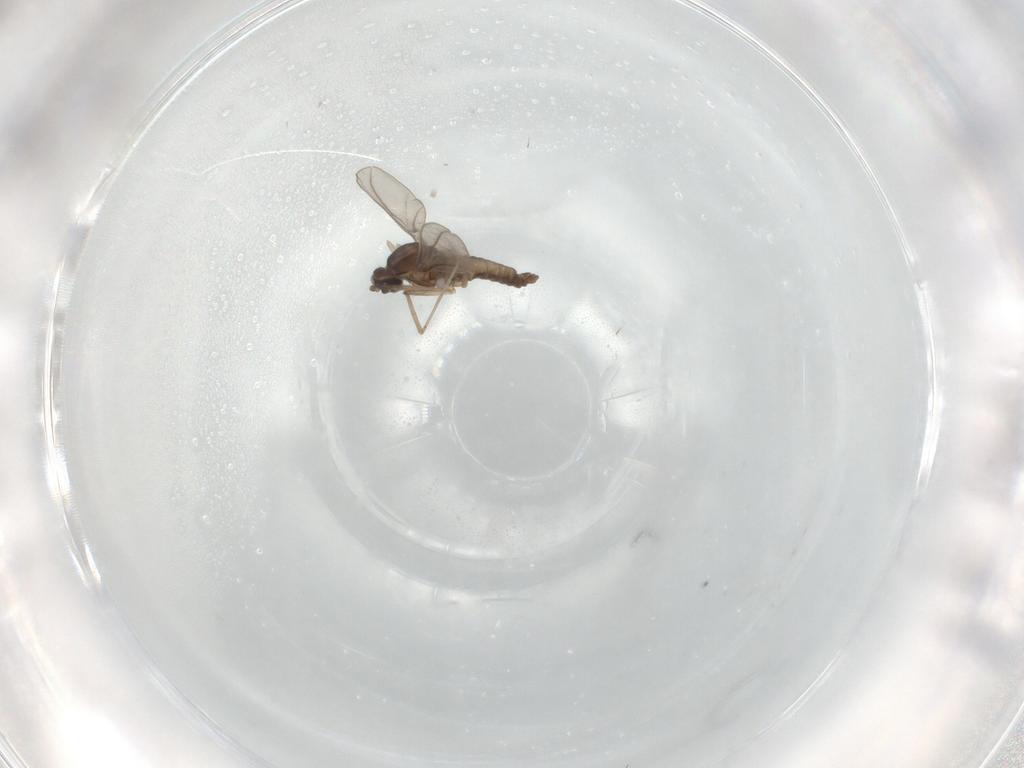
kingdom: Animalia
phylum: Arthropoda
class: Insecta
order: Diptera
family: Cecidomyiidae
